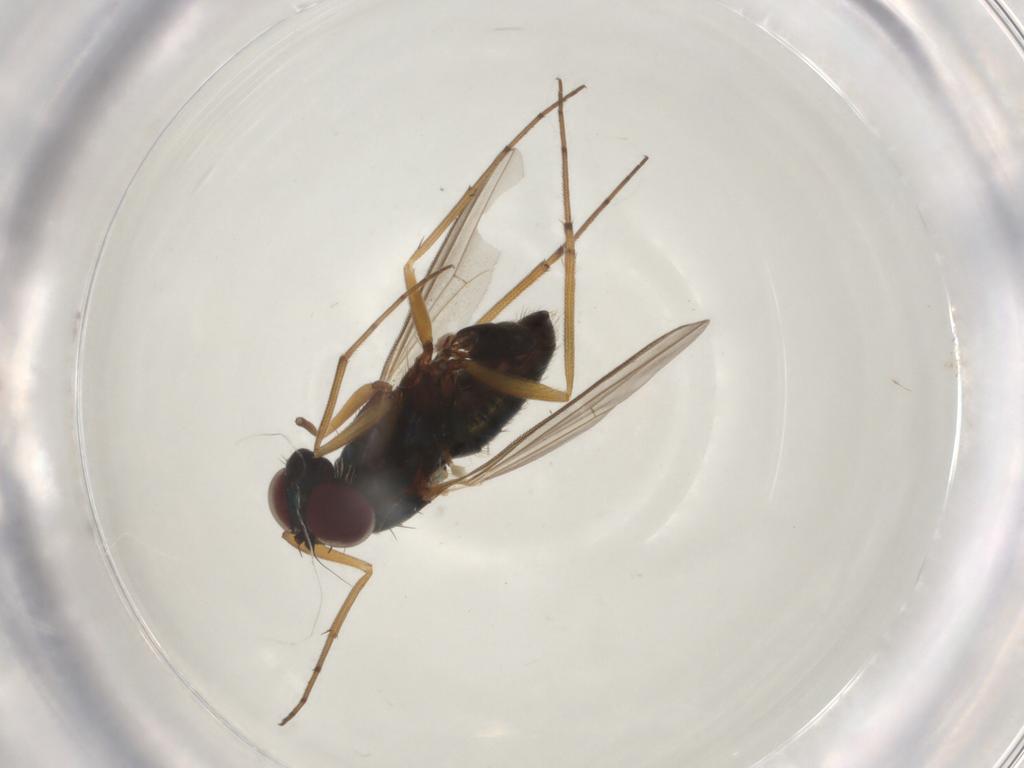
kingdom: Animalia
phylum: Arthropoda
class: Insecta
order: Diptera
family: Dolichopodidae
